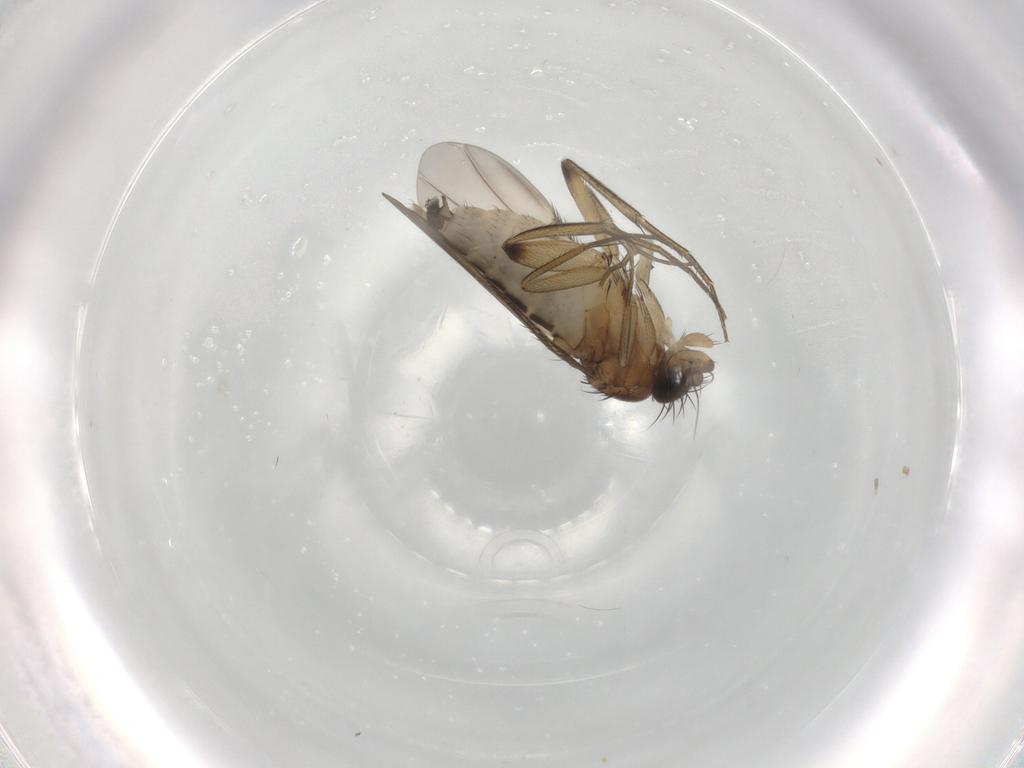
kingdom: Animalia
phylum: Arthropoda
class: Insecta
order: Diptera
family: Phoridae
